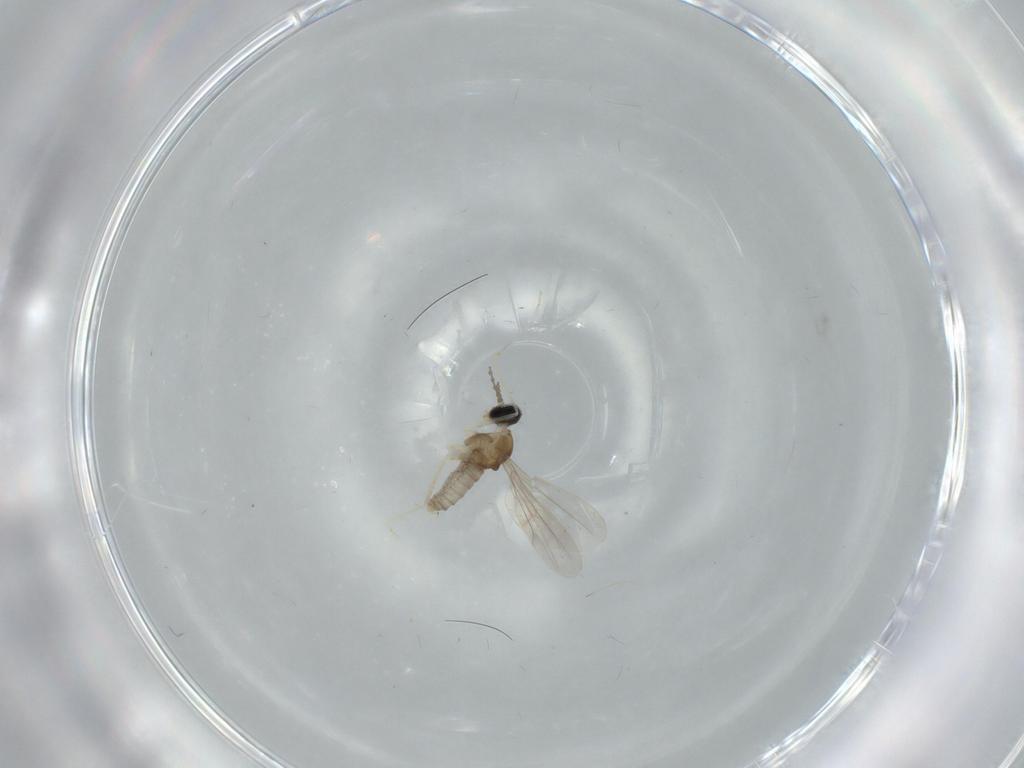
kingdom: Animalia
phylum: Arthropoda
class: Insecta
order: Diptera
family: Cecidomyiidae
